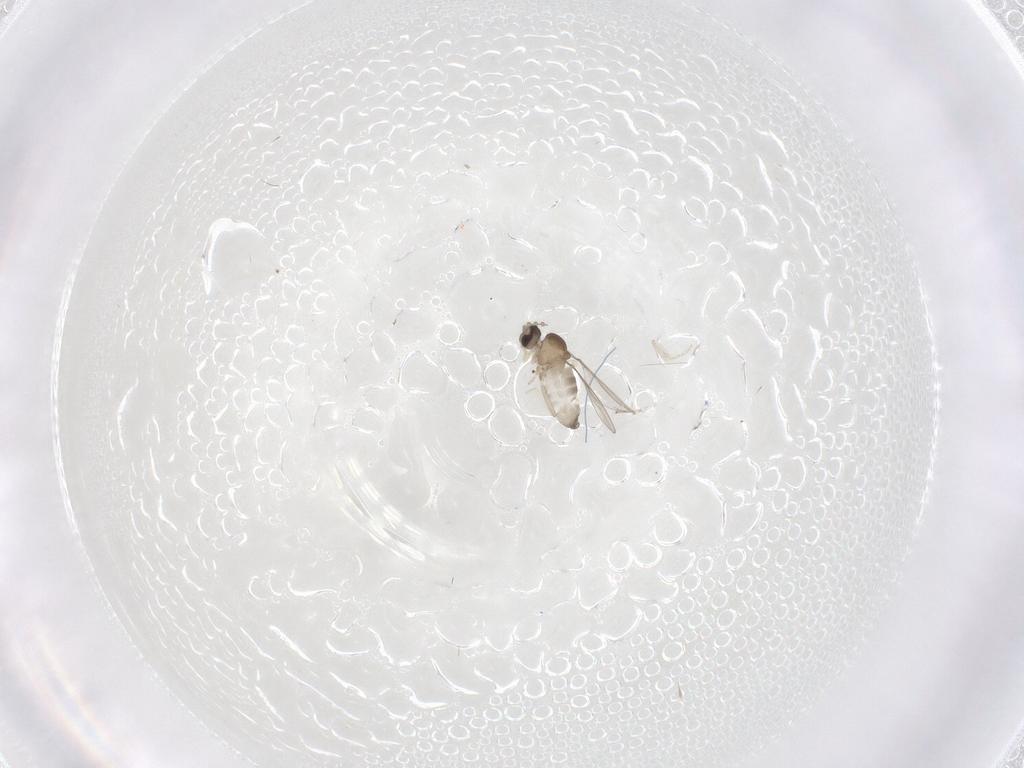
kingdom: Animalia
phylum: Arthropoda
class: Insecta
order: Diptera
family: Cecidomyiidae
